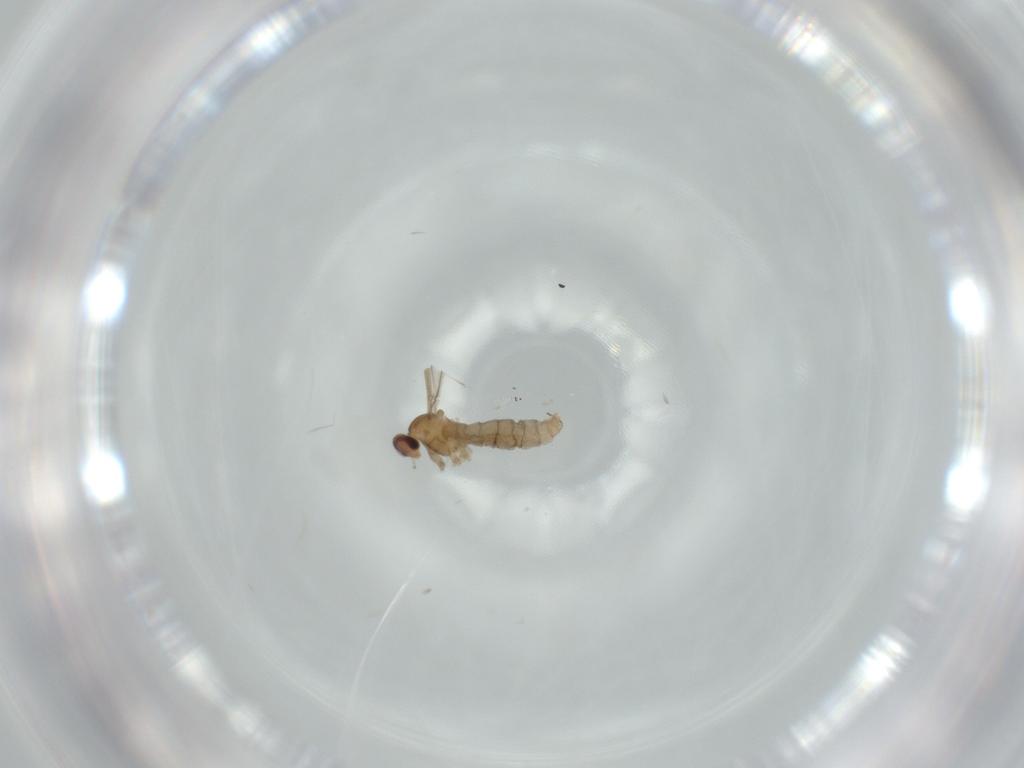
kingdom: Animalia
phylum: Arthropoda
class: Insecta
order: Diptera
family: Cecidomyiidae
